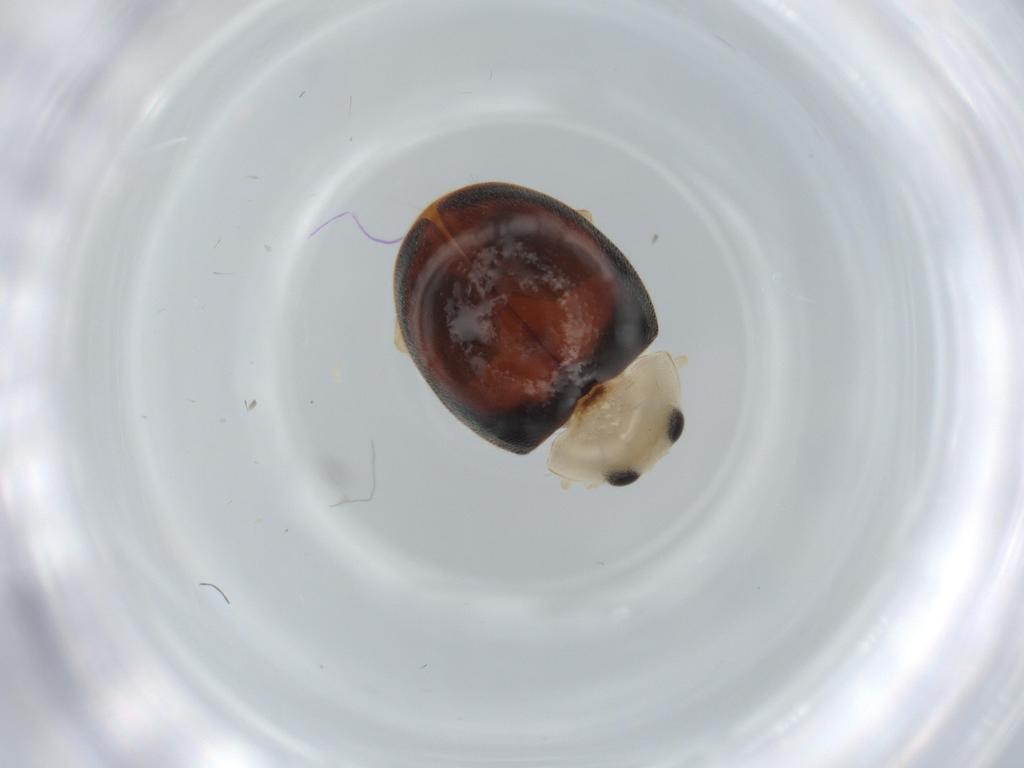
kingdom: Animalia
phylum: Arthropoda
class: Insecta
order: Coleoptera
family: Coccinellidae
